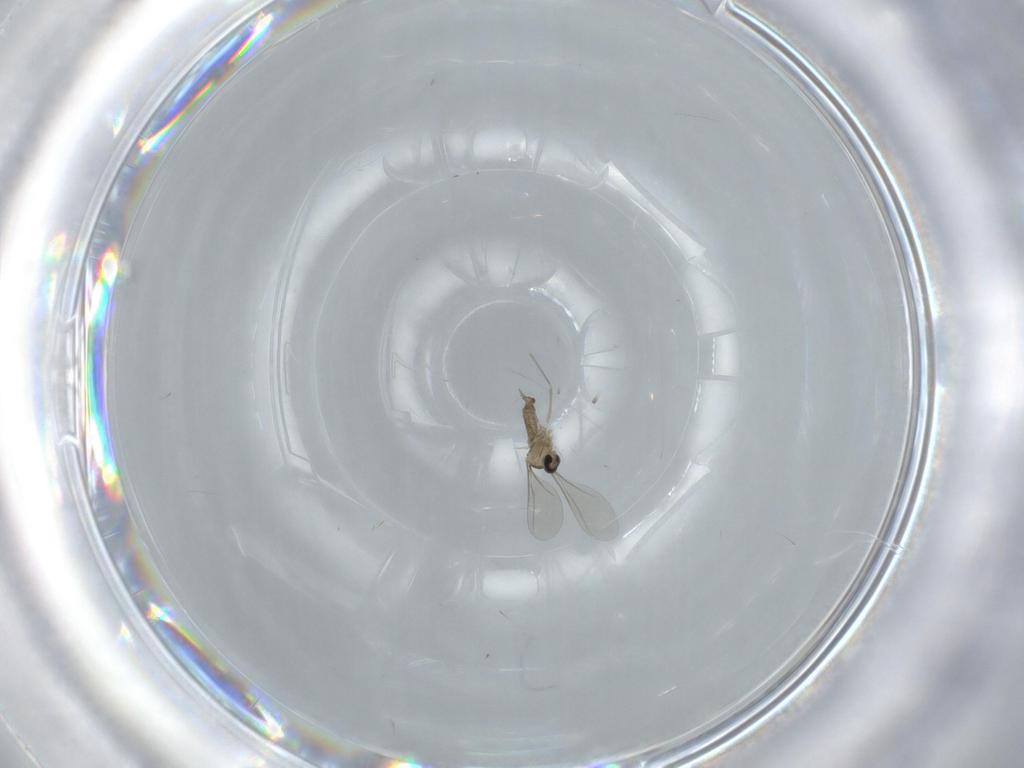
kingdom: Animalia
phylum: Arthropoda
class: Insecta
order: Diptera
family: Cecidomyiidae
